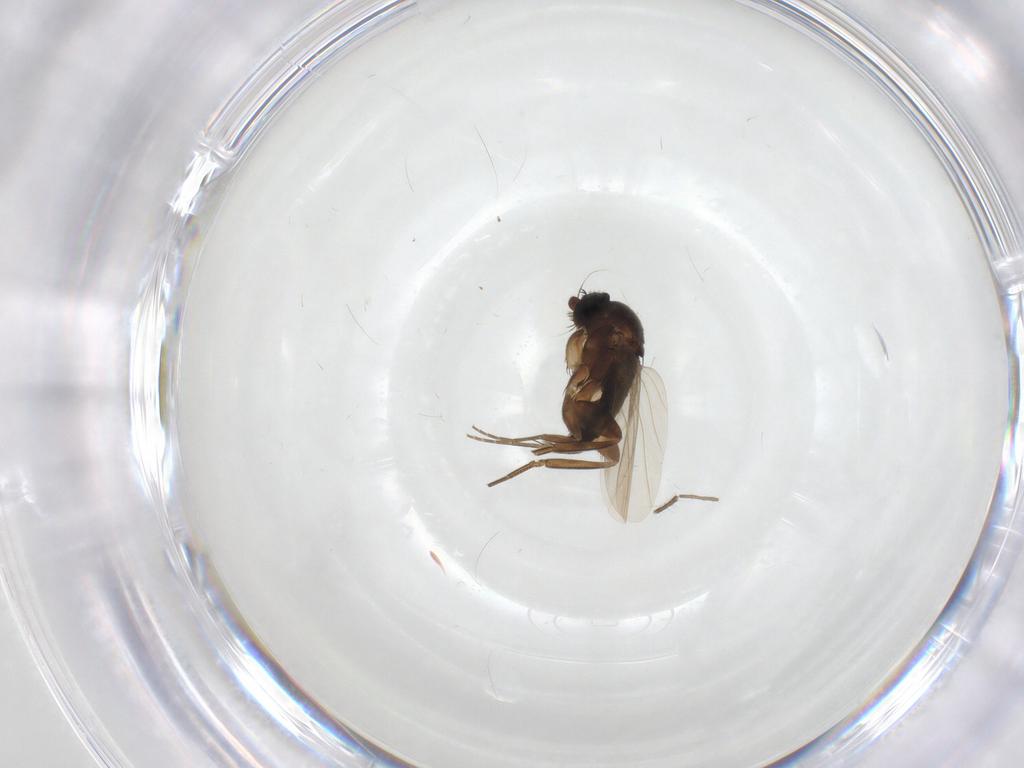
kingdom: Animalia
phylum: Arthropoda
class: Insecta
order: Diptera
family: Phoridae
